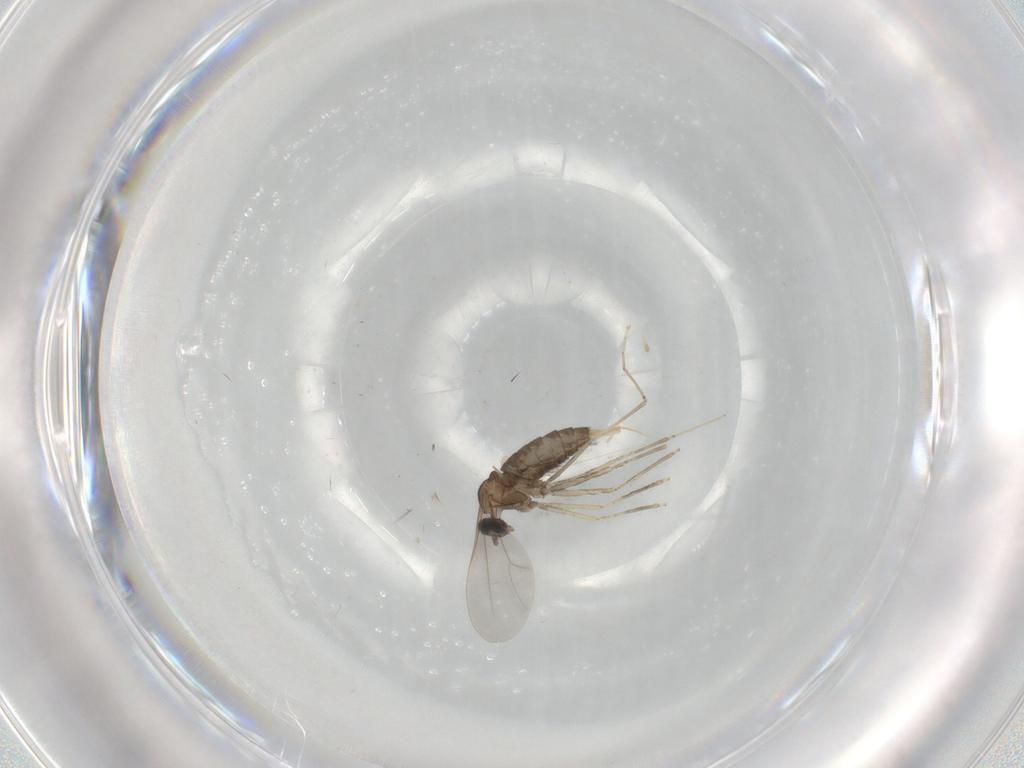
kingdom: Animalia
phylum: Arthropoda
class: Insecta
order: Diptera
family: Cecidomyiidae
